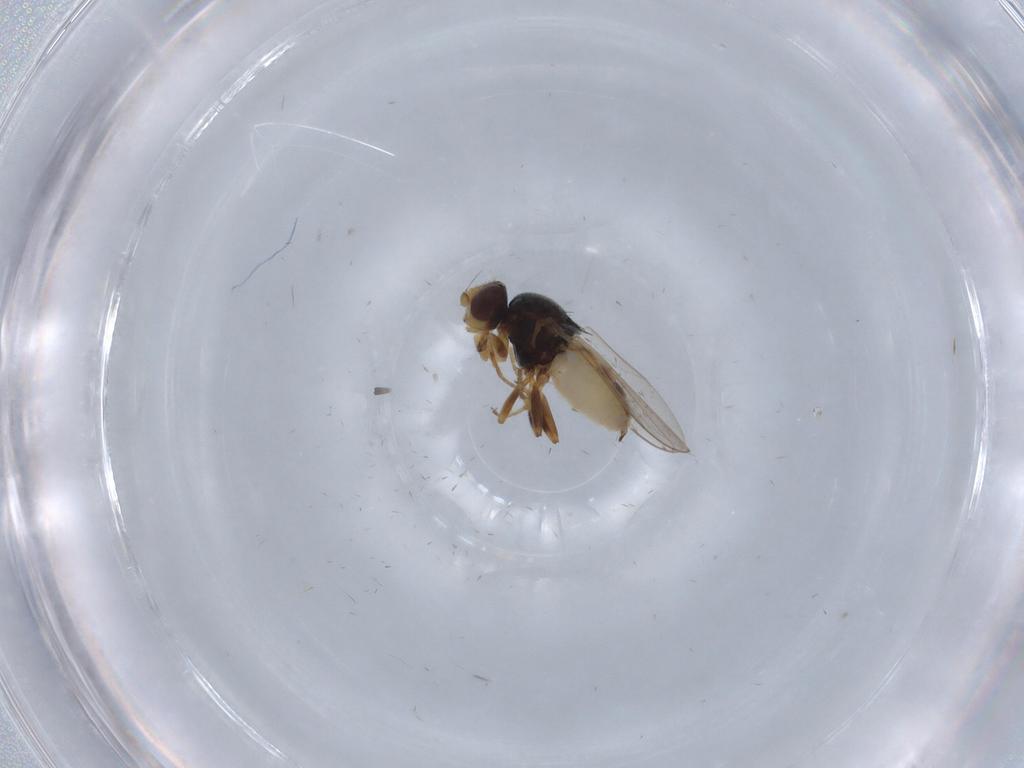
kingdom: Animalia
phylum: Arthropoda
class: Insecta
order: Diptera
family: Chloropidae
